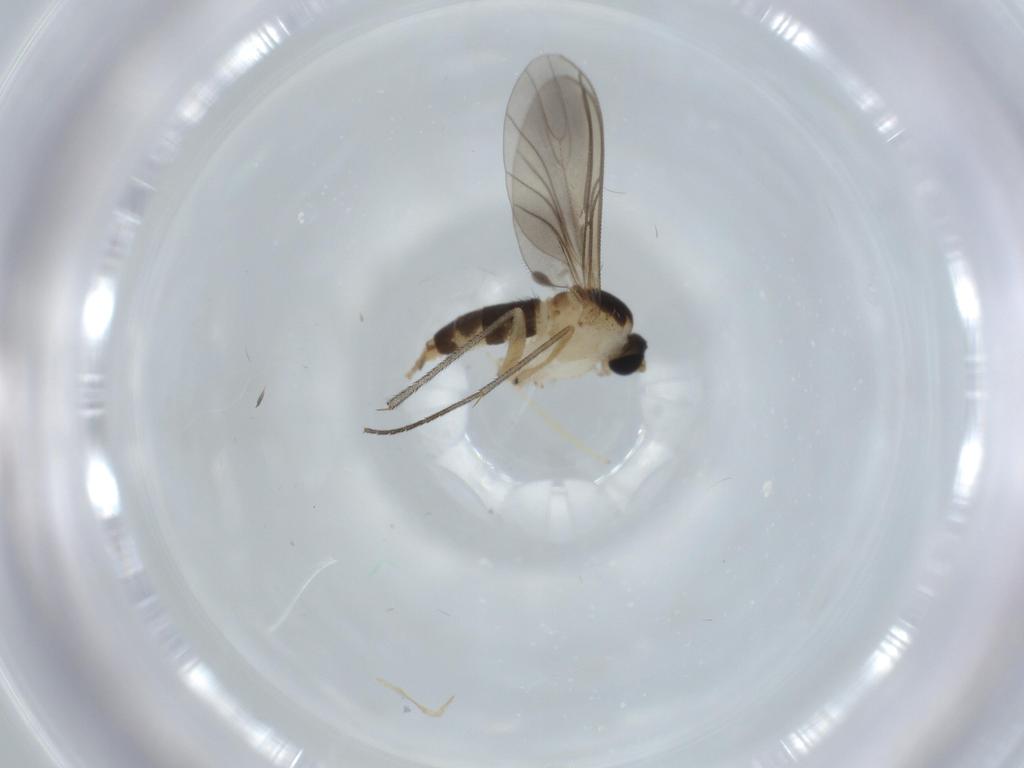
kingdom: Animalia
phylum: Arthropoda
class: Insecta
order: Diptera
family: Sciaridae
